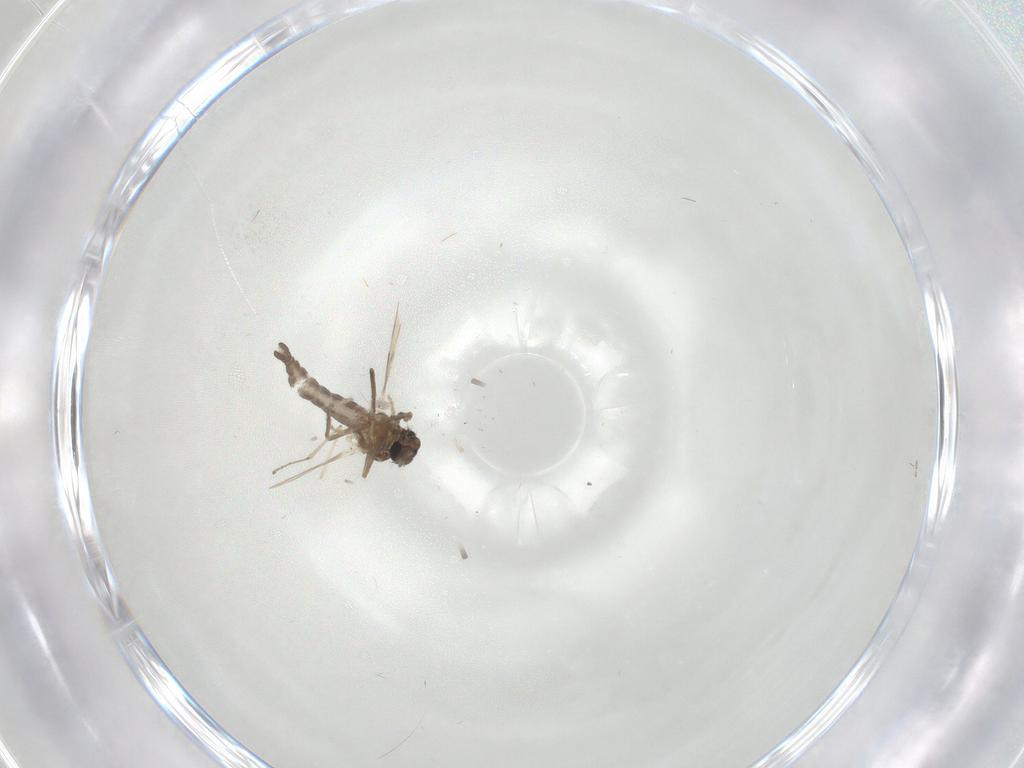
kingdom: Animalia
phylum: Arthropoda
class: Insecta
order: Diptera
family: Ceratopogonidae
